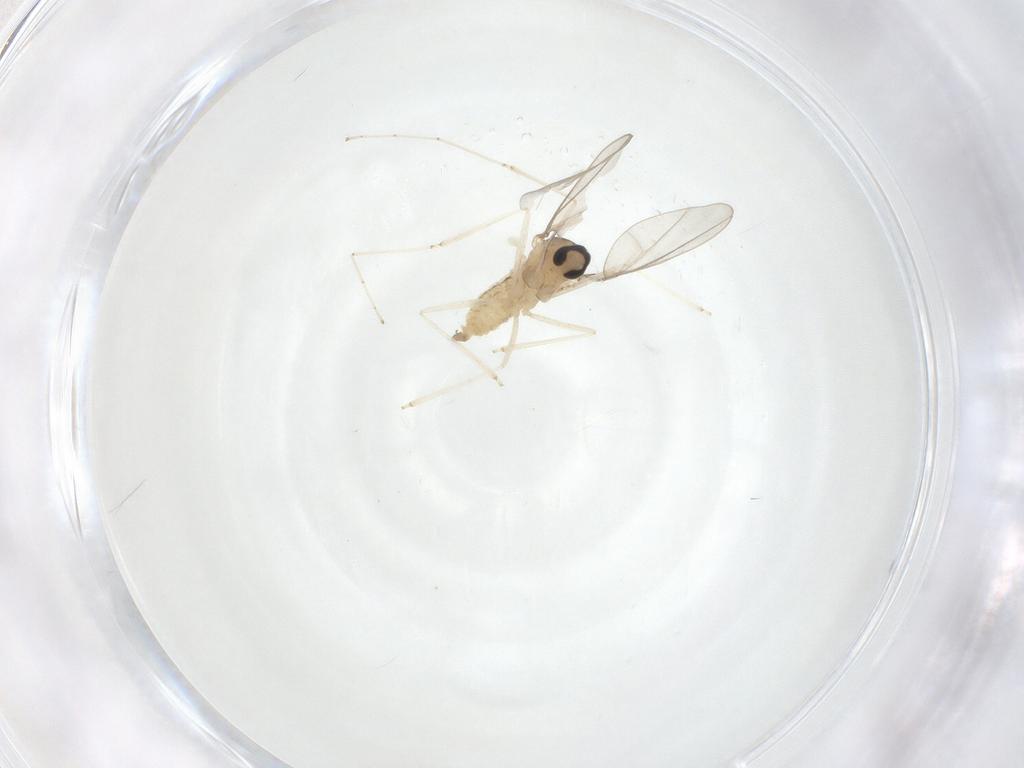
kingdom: Animalia
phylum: Arthropoda
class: Insecta
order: Diptera
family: Cecidomyiidae
